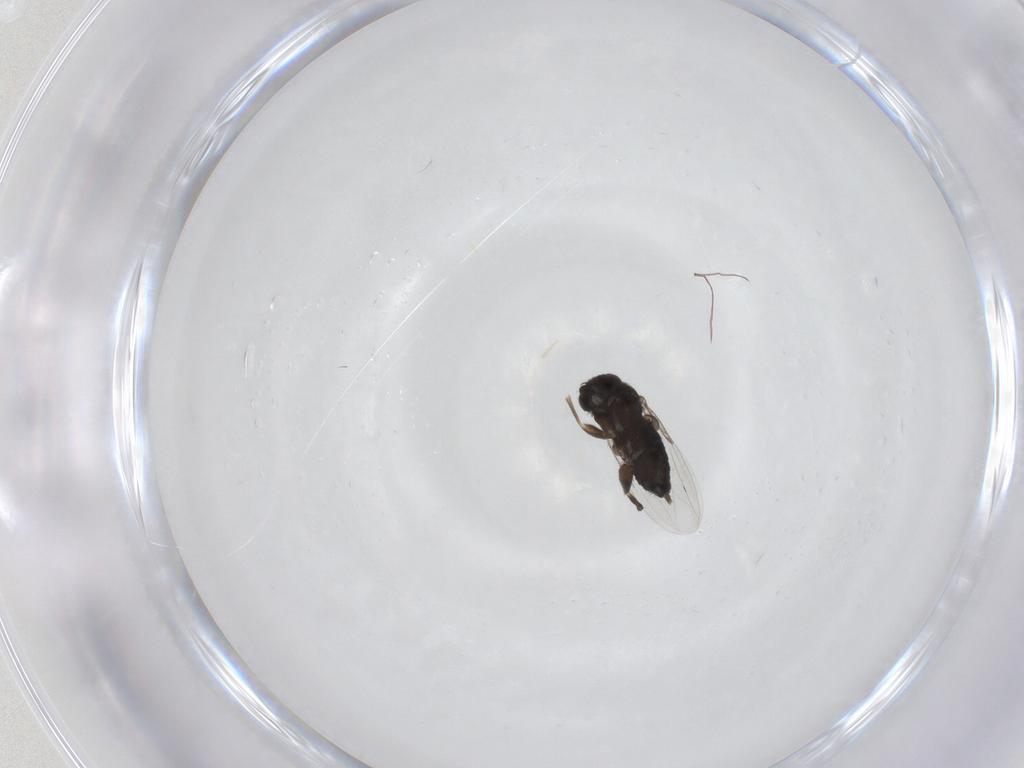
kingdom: Animalia
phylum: Arthropoda
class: Insecta
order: Diptera
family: Phoridae
